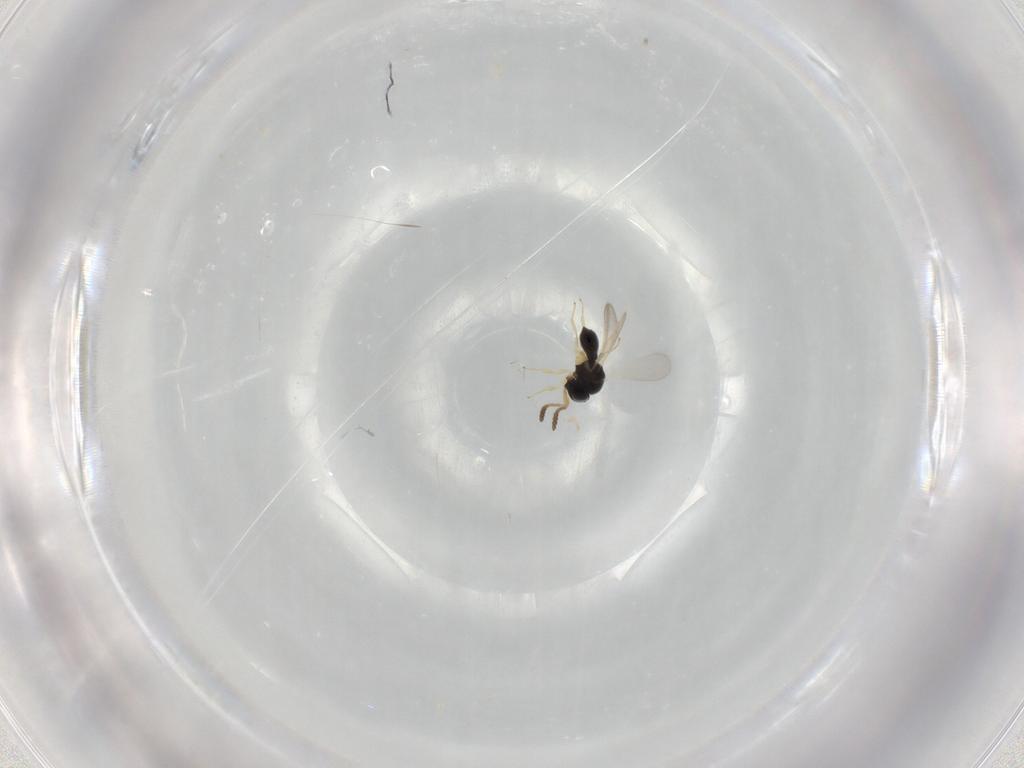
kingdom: Animalia
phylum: Arthropoda
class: Insecta
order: Hymenoptera
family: Scelionidae
